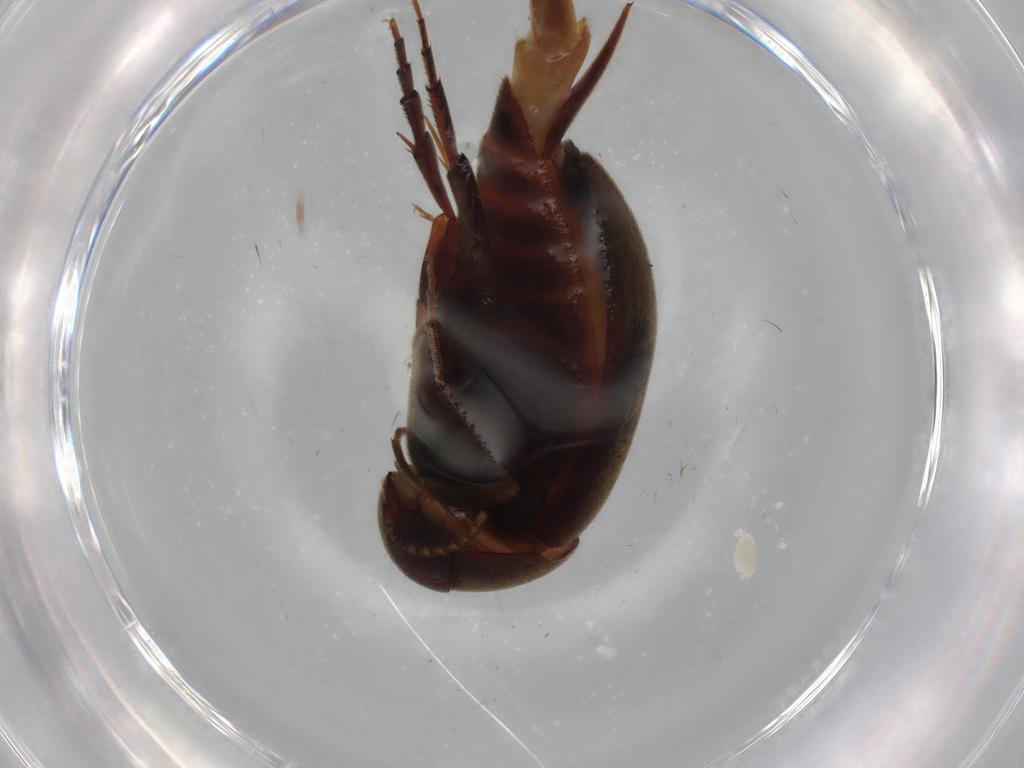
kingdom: Animalia
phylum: Arthropoda
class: Insecta
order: Coleoptera
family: Mordellidae
